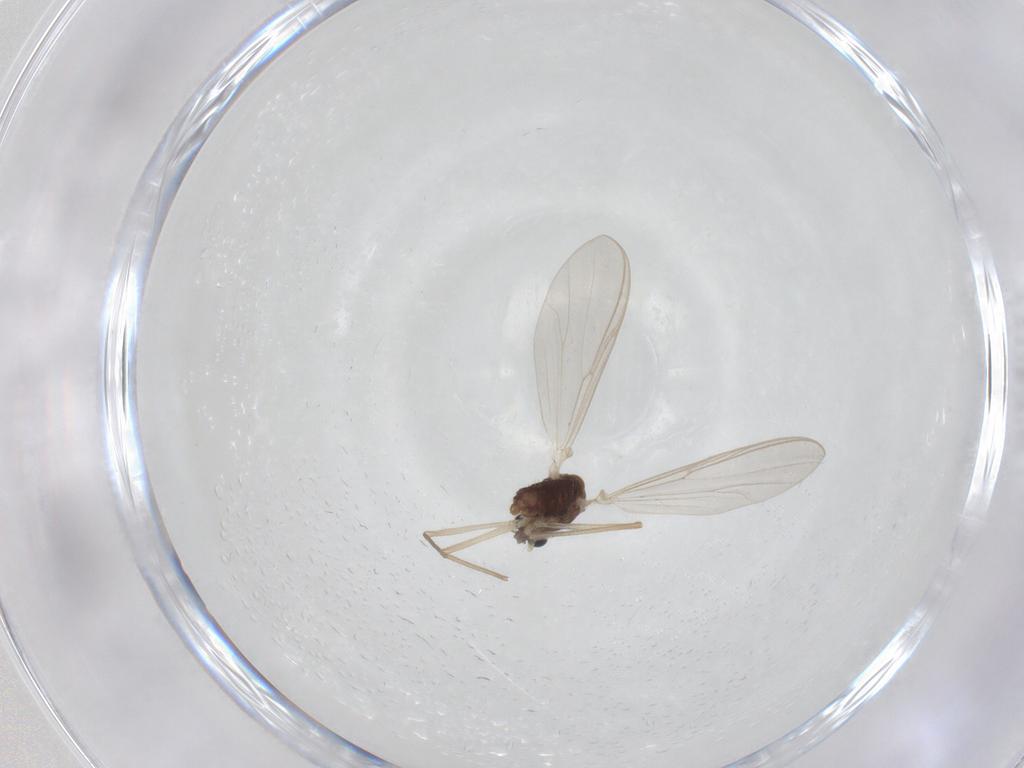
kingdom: Animalia
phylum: Arthropoda
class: Insecta
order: Diptera
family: Chironomidae
